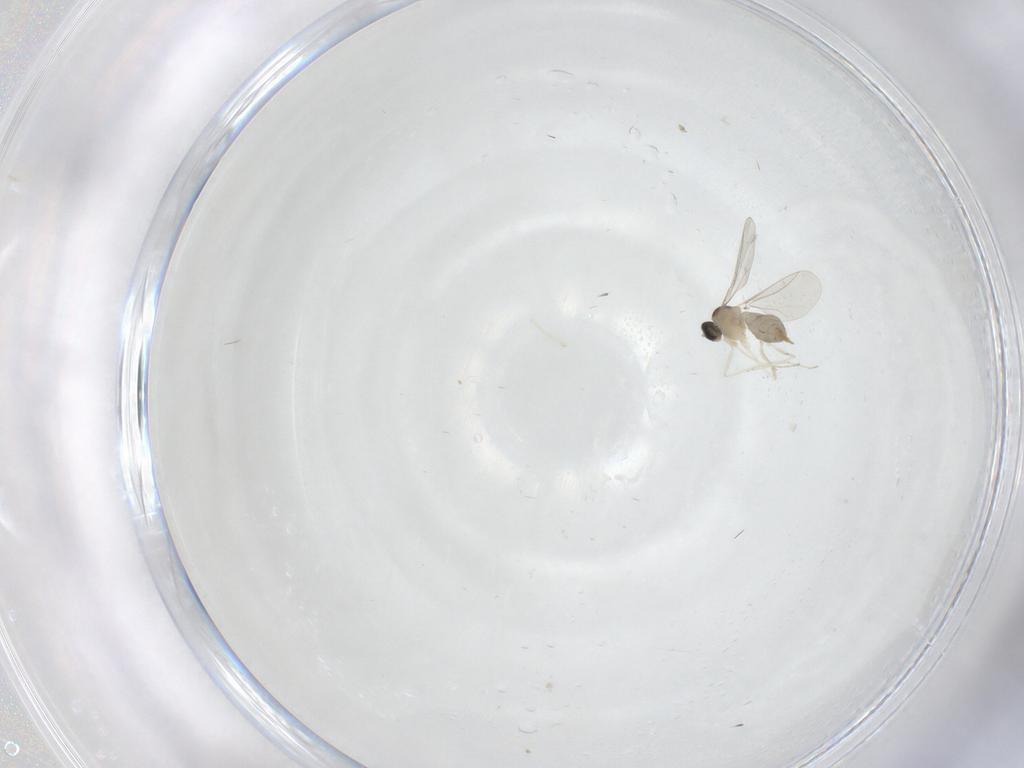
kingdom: Animalia
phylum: Arthropoda
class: Insecta
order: Diptera
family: Cecidomyiidae
